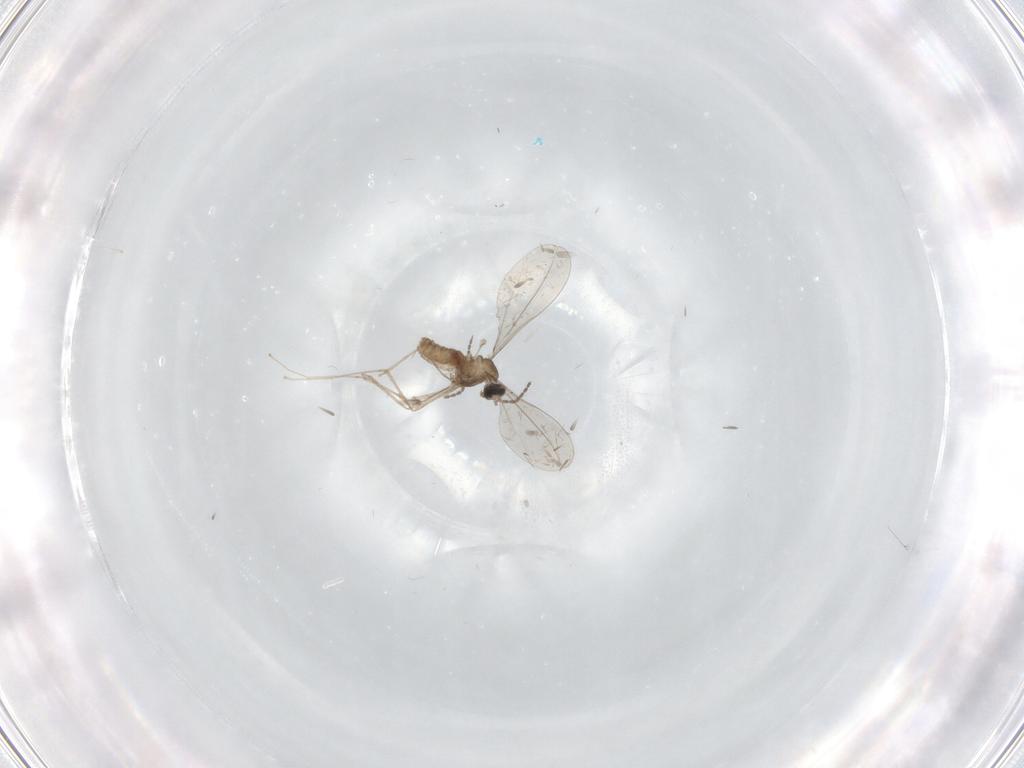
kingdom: Animalia
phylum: Arthropoda
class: Insecta
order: Diptera
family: Cecidomyiidae
